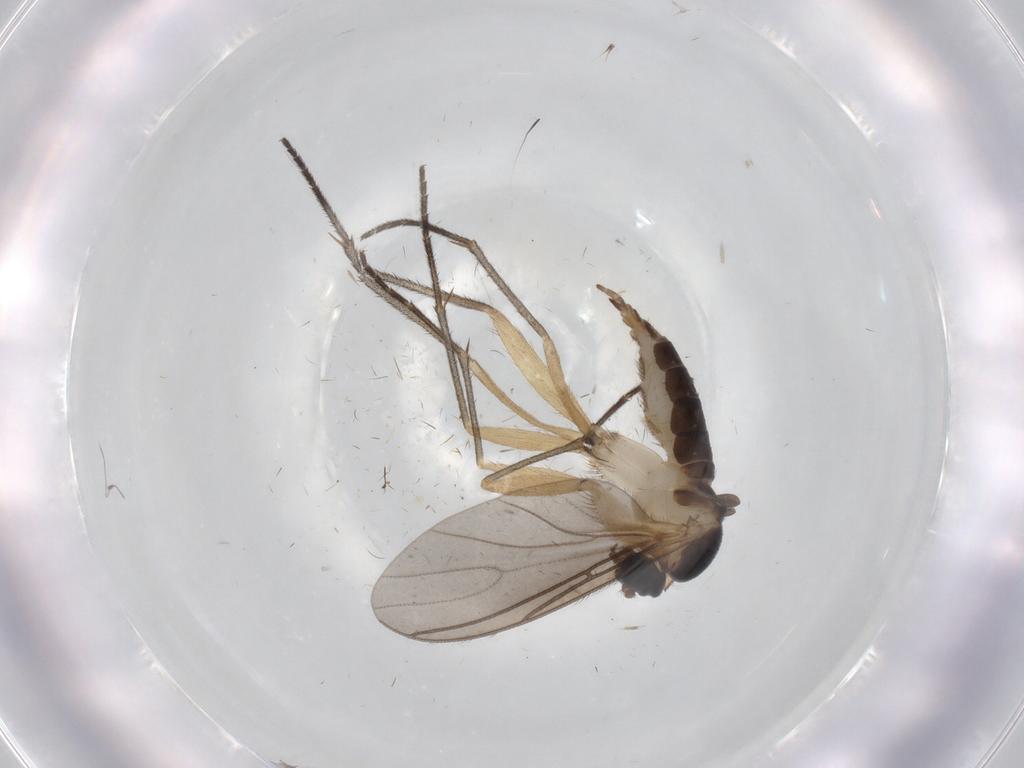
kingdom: Animalia
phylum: Arthropoda
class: Insecta
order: Diptera
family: Sciaridae
